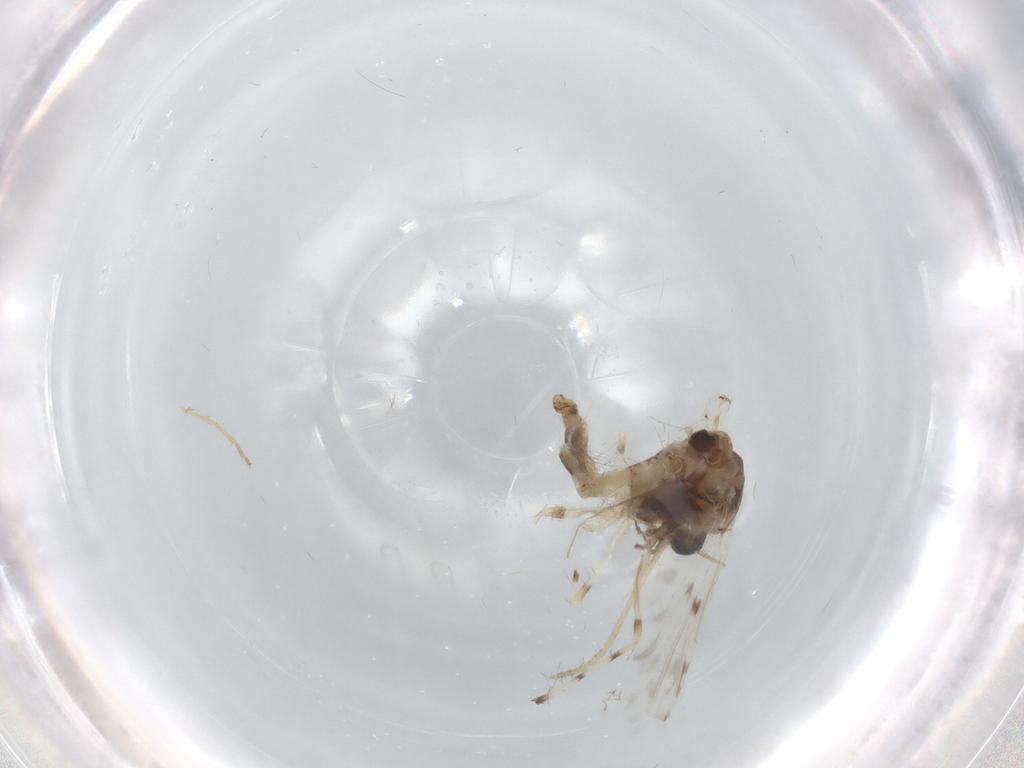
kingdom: Animalia
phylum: Arthropoda
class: Insecta
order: Diptera
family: Chironomidae
